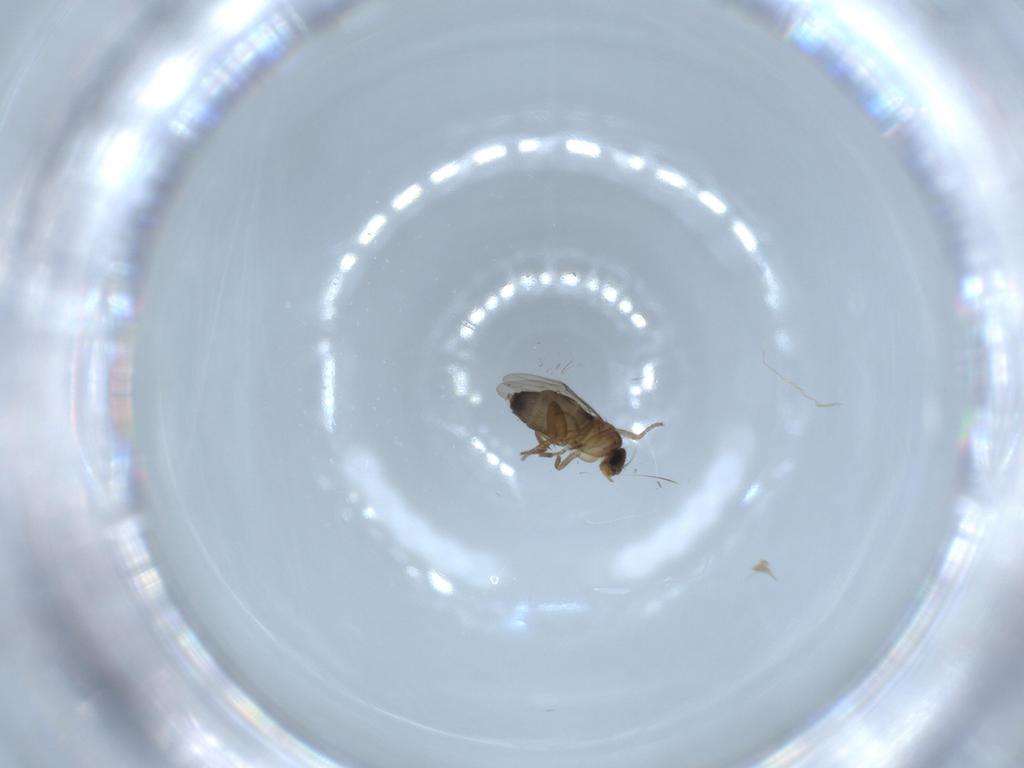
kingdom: Animalia
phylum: Arthropoda
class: Insecta
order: Diptera
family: Phoridae
